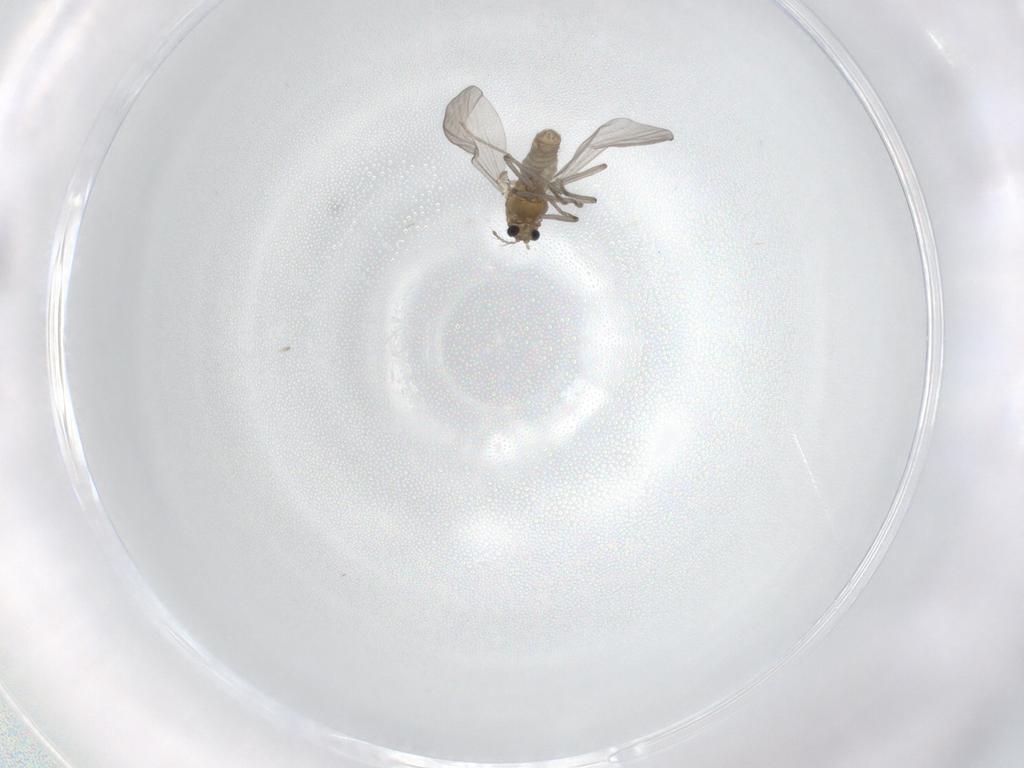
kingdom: Animalia
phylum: Arthropoda
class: Insecta
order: Diptera
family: Chironomidae
